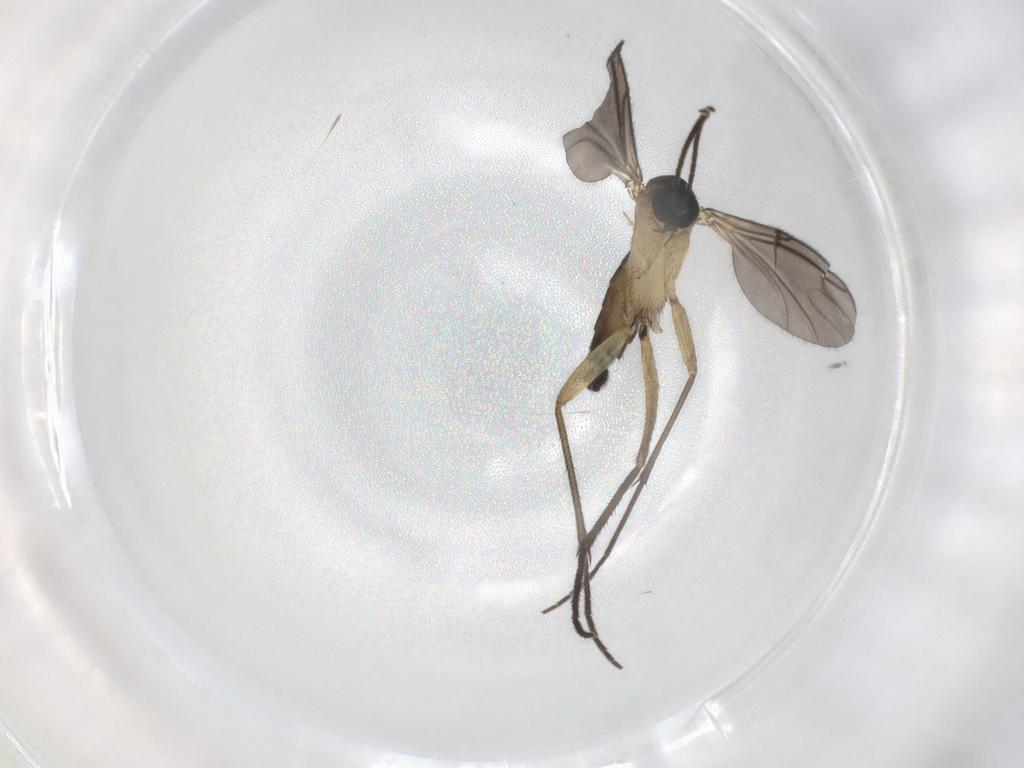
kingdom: Animalia
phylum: Arthropoda
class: Insecta
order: Diptera
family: Sciaridae
